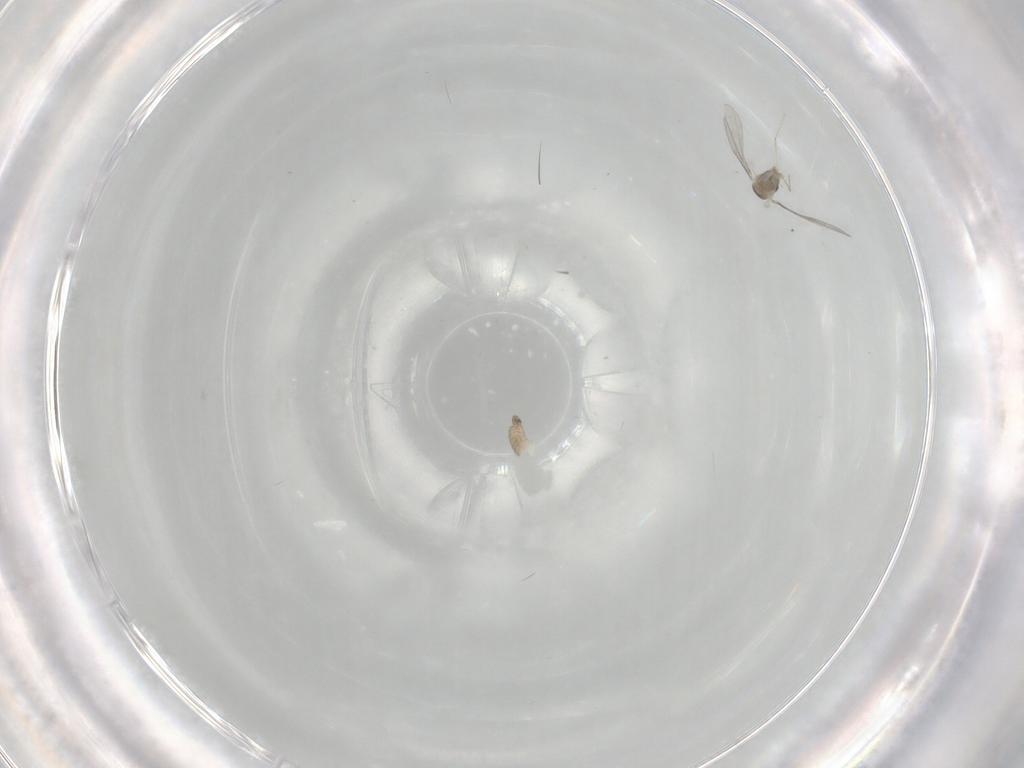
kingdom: Animalia
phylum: Arthropoda
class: Insecta
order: Diptera
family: Cecidomyiidae
